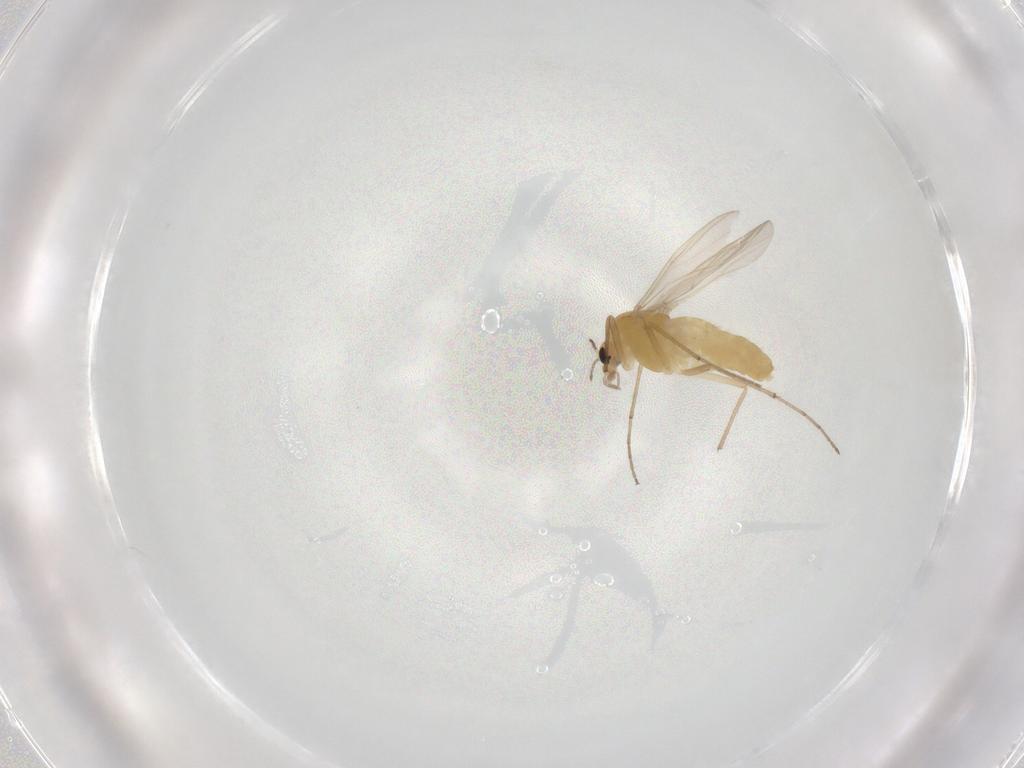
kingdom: Animalia
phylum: Arthropoda
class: Insecta
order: Diptera
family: Chironomidae
